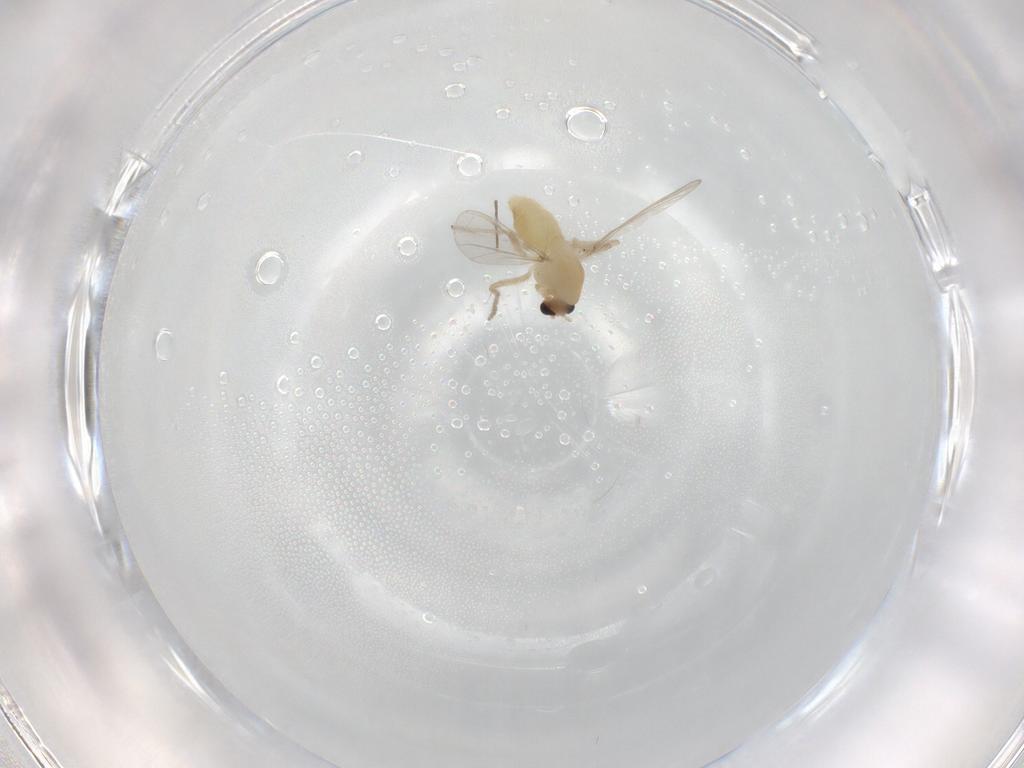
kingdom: Animalia
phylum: Arthropoda
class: Insecta
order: Diptera
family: Chironomidae
